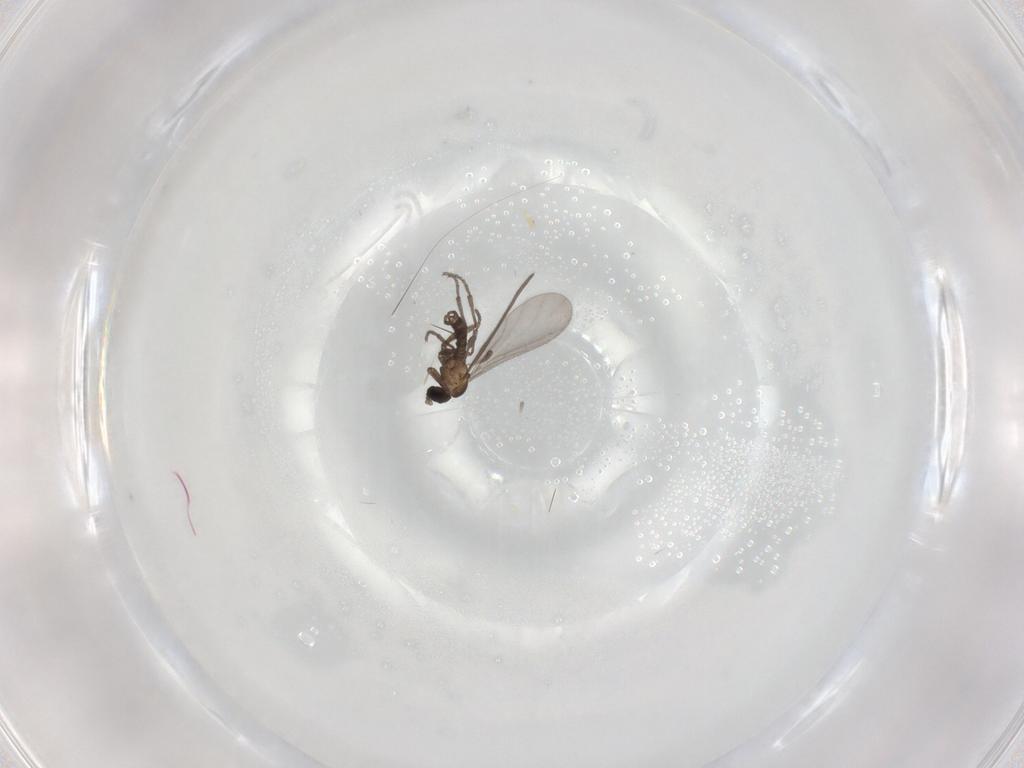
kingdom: Animalia
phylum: Arthropoda
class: Insecta
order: Diptera
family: Sciaridae
